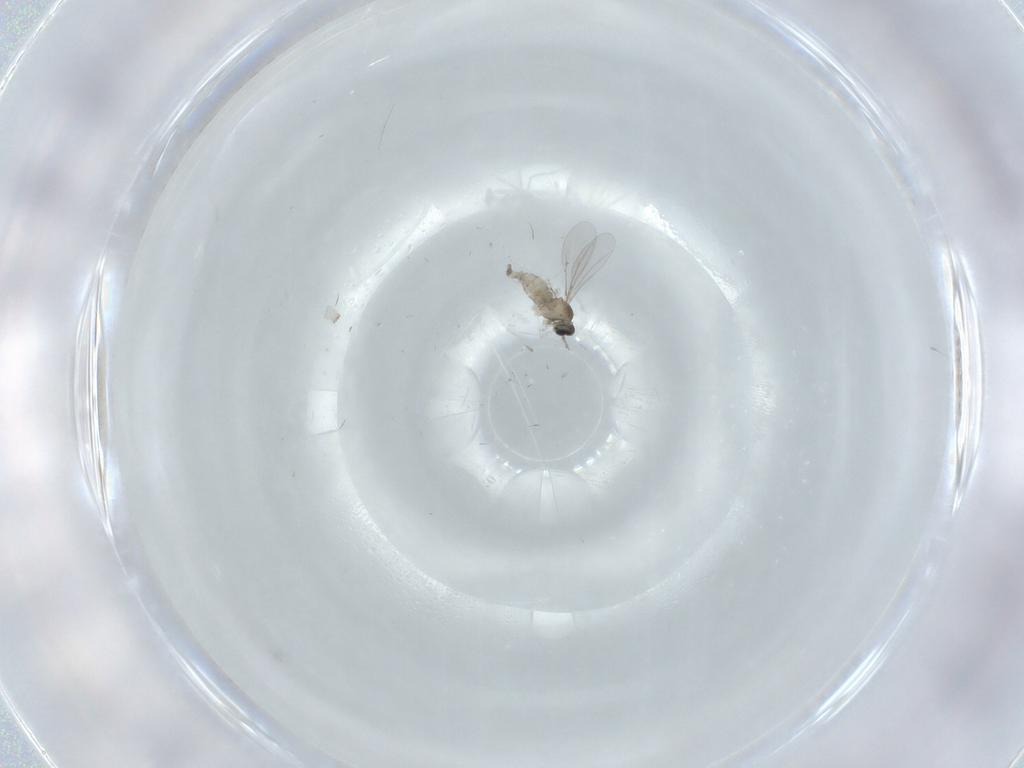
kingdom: Animalia
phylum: Arthropoda
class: Insecta
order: Diptera
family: Cecidomyiidae
